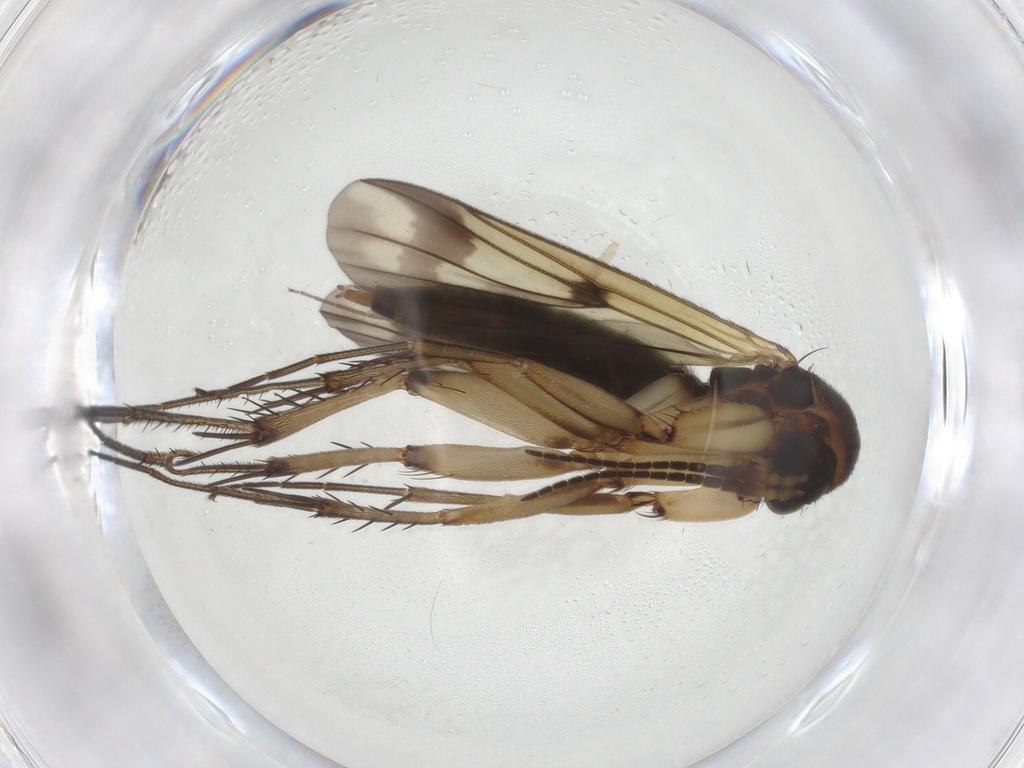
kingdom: Animalia
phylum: Arthropoda
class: Insecta
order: Diptera
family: Chironomidae
